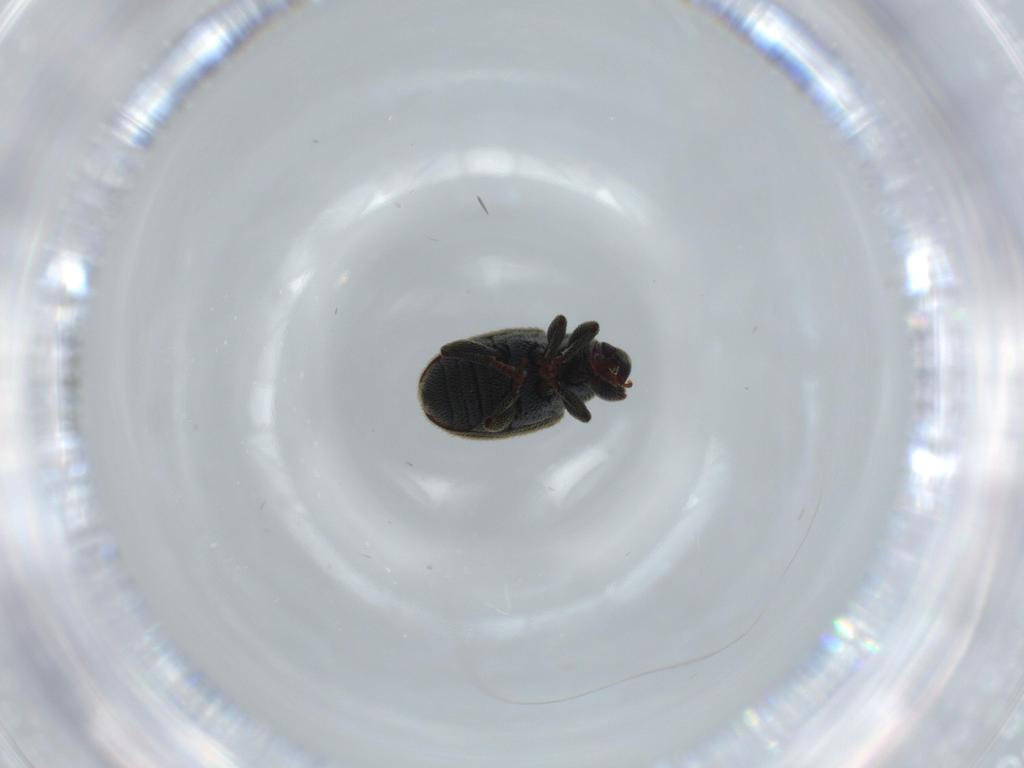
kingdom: Animalia
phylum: Arthropoda
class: Insecta
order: Coleoptera
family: Curculionidae
